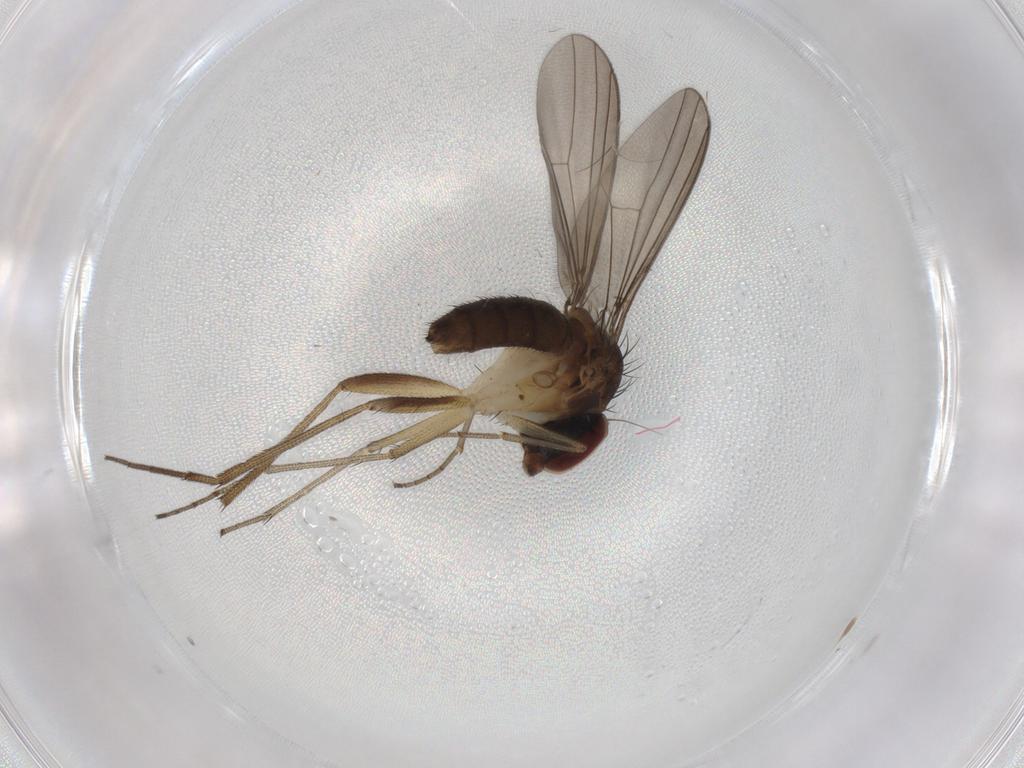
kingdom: Animalia
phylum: Arthropoda
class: Insecta
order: Diptera
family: Dolichopodidae
